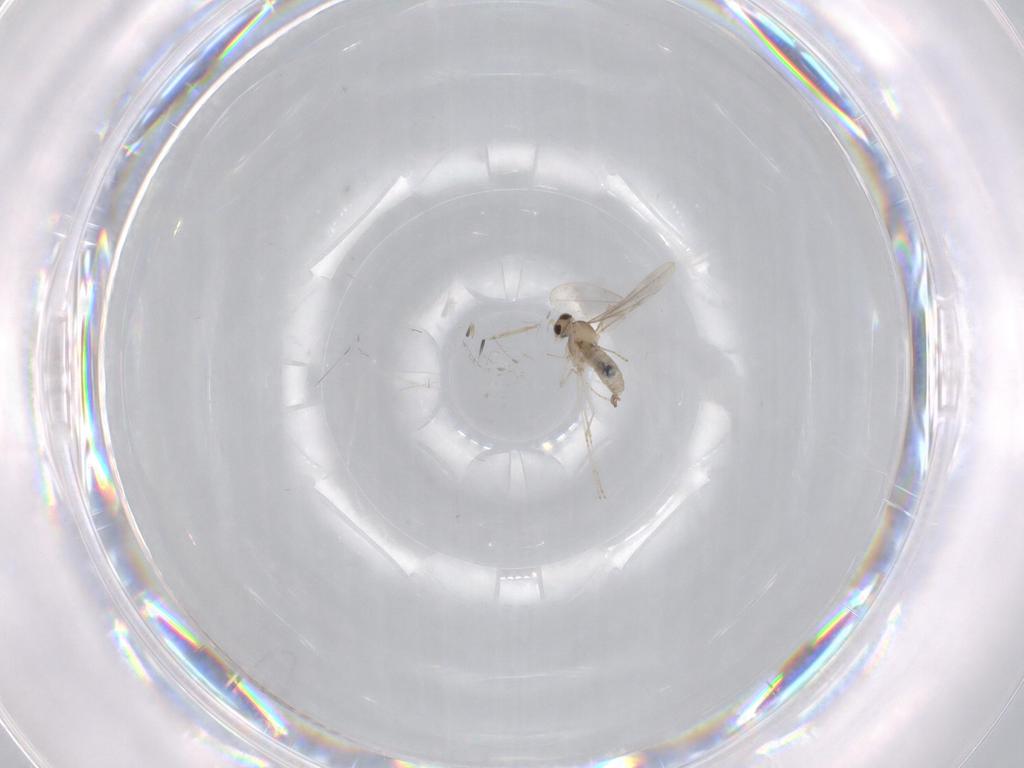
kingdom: Animalia
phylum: Arthropoda
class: Insecta
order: Diptera
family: Cecidomyiidae
